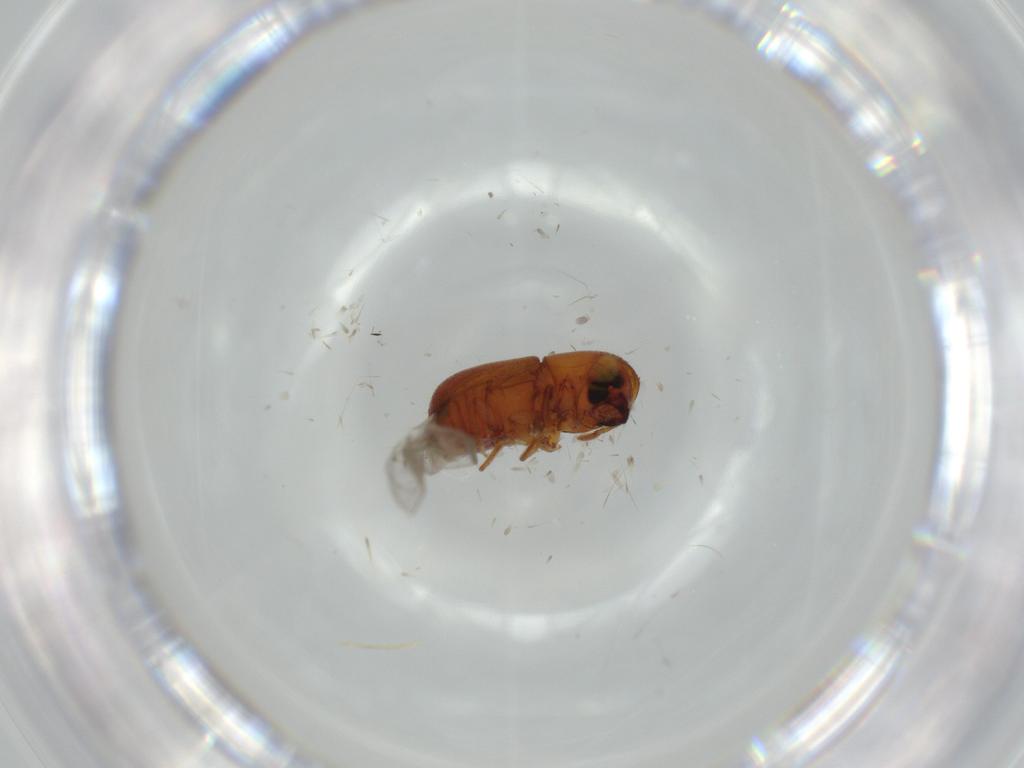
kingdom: Animalia
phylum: Arthropoda
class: Insecta
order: Coleoptera
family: Curculionidae
